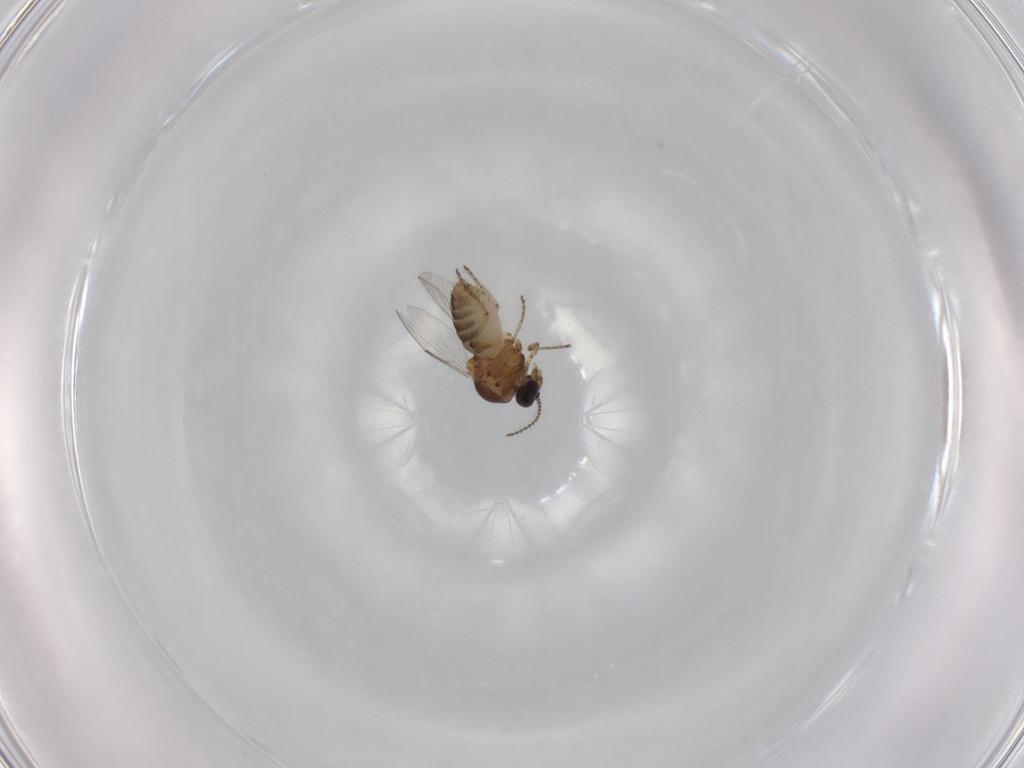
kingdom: Animalia
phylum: Arthropoda
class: Insecta
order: Diptera
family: Ceratopogonidae
